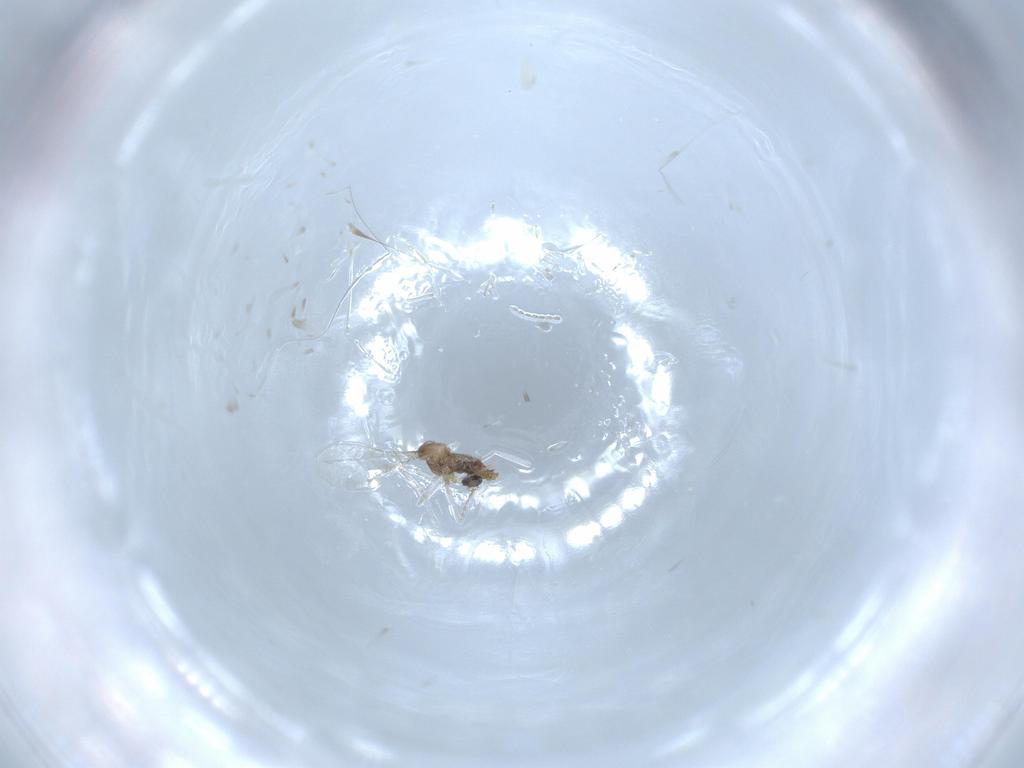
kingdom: Animalia
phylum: Arthropoda
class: Insecta
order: Diptera
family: Cecidomyiidae
